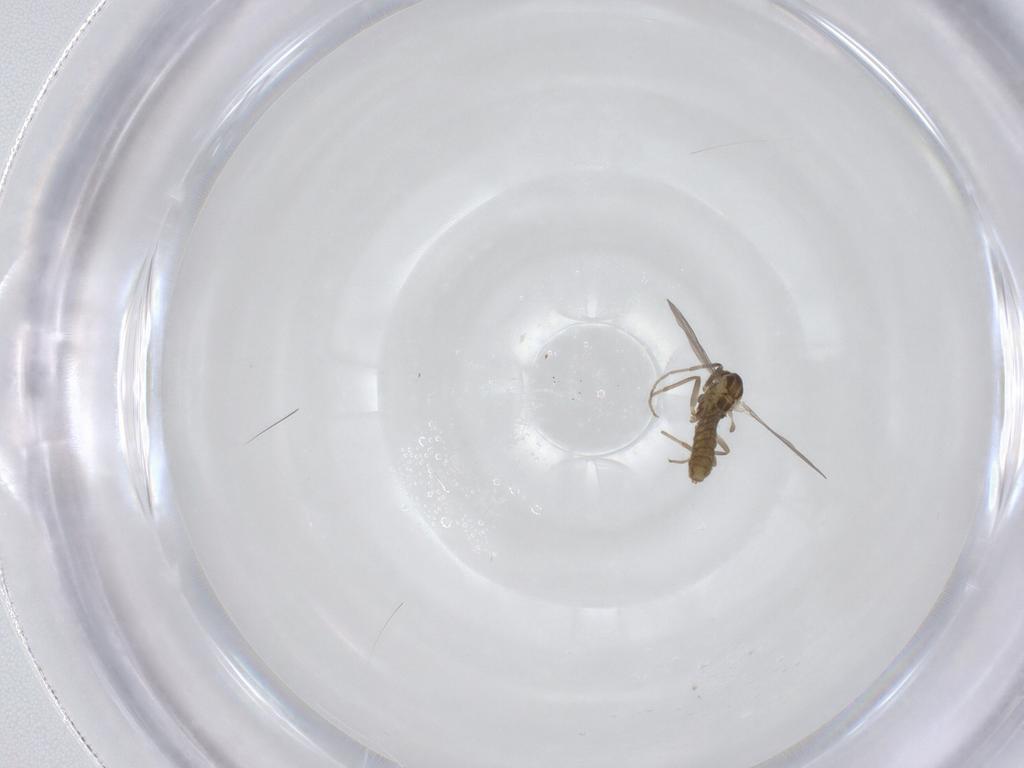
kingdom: Animalia
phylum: Arthropoda
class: Insecta
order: Diptera
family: Chironomidae
